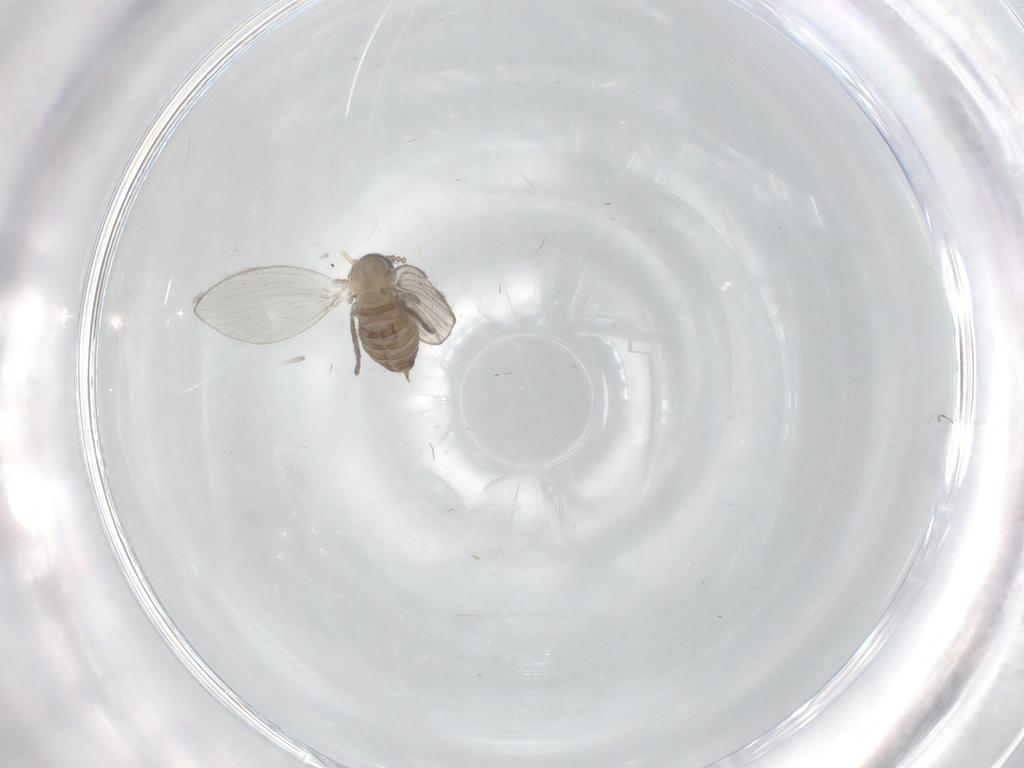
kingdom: Animalia
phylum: Arthropoda
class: Insecta
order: Diptera
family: Psychodidae
